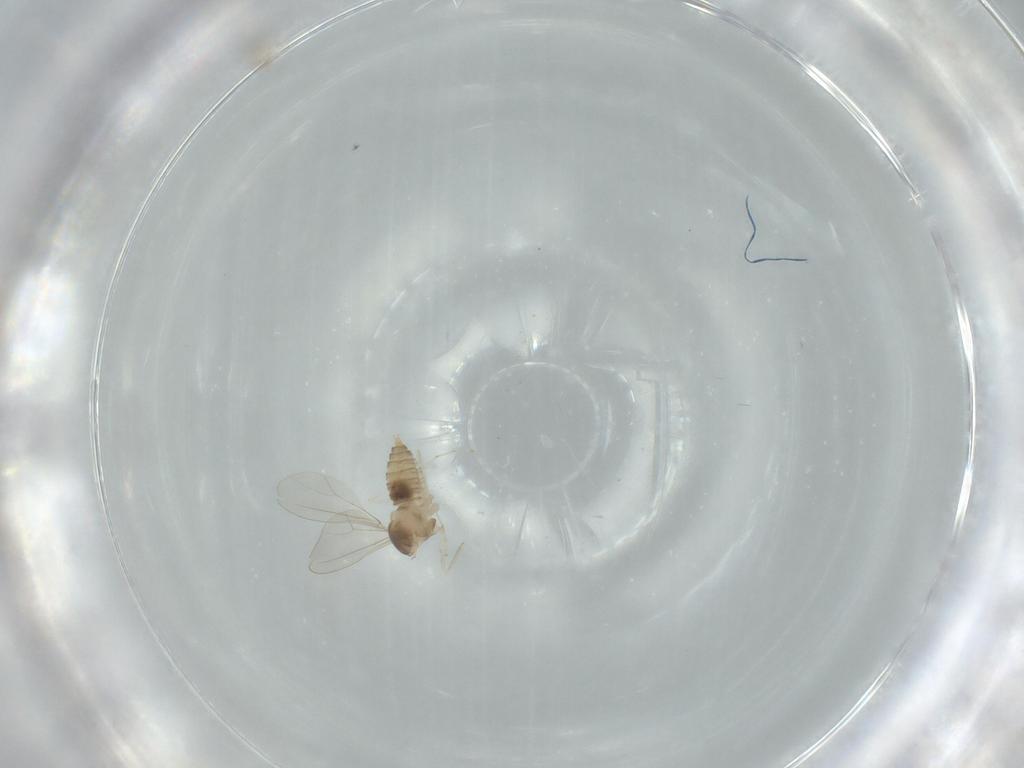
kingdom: Animalia
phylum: Arthropoda
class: Insecta
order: Diptera
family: Cecidomyiidae
